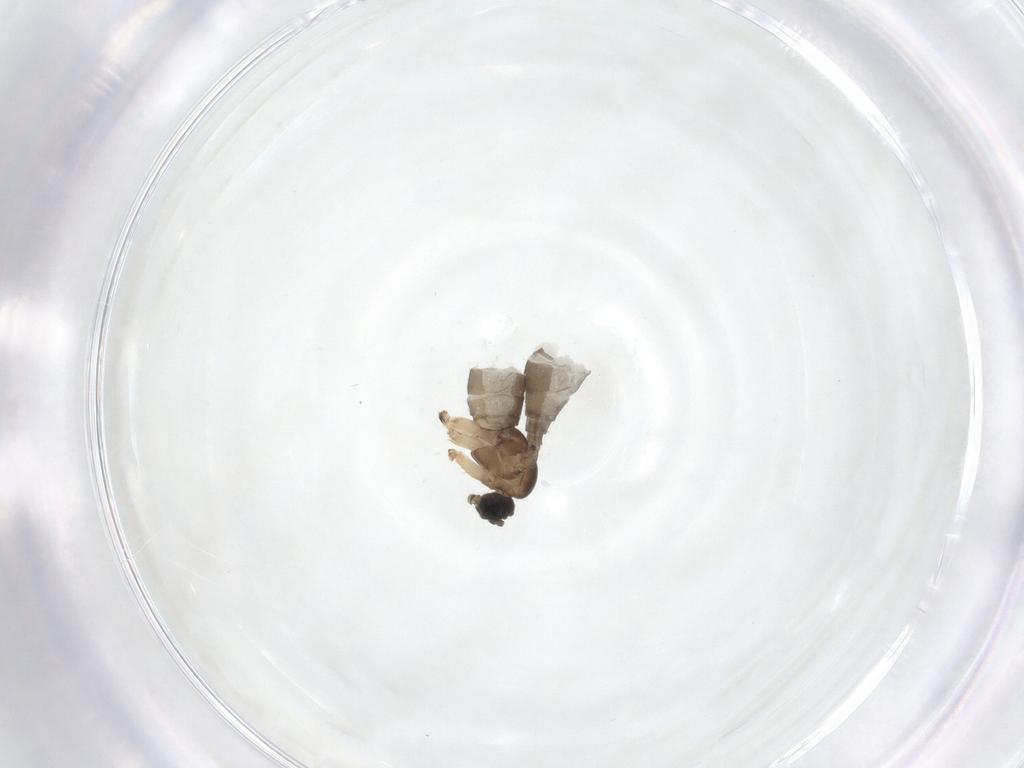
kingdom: Animalia
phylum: Arthropoda
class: Insecta
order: Diptera
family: Sciaridae
